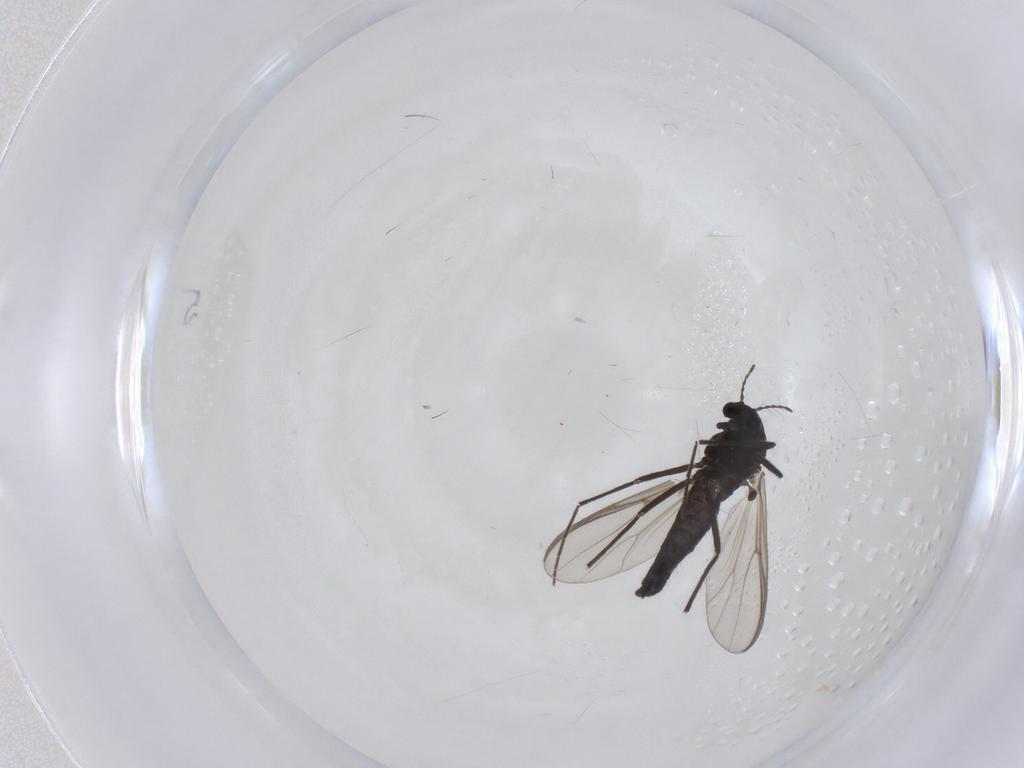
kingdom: Animalia
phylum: Arthropoda
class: Insecta
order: Diptera
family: Chironomidae
